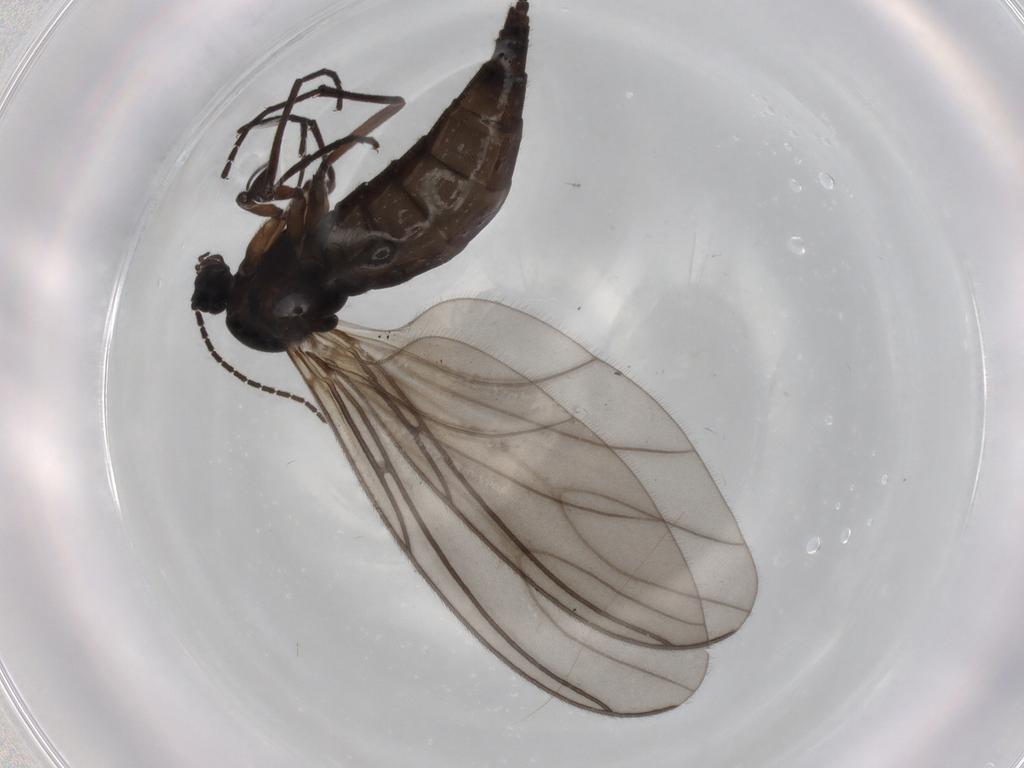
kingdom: Animalia
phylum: Arthropoda
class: Insecta
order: Diptera
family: Sciaridae
